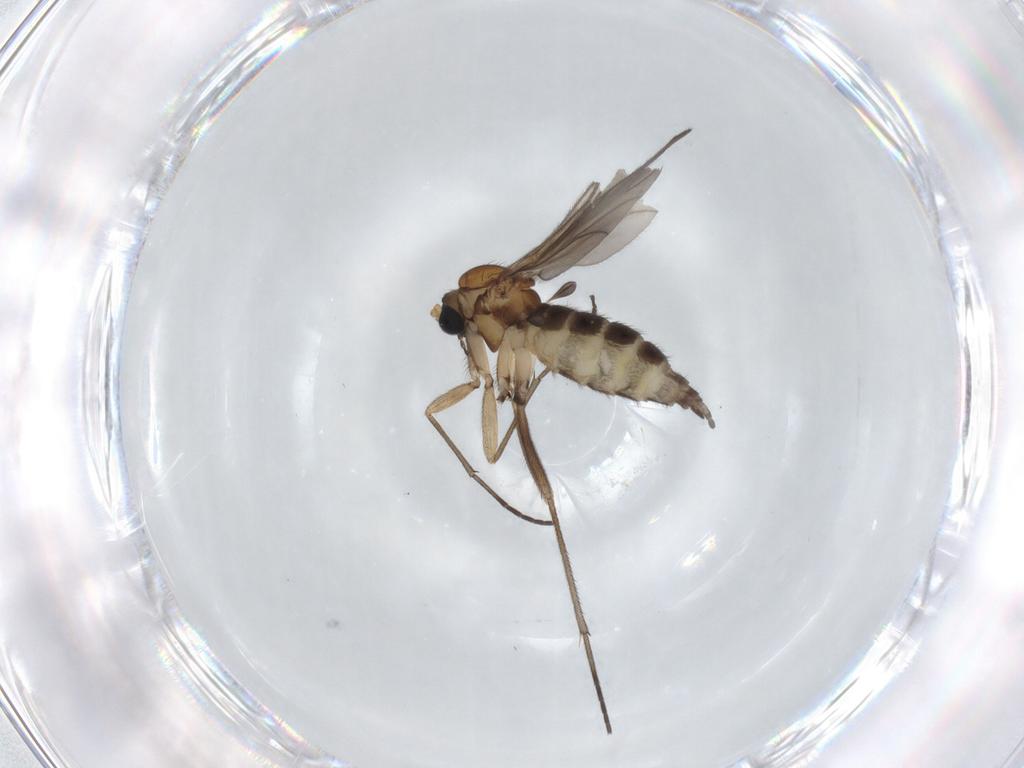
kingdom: Animalia
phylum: Arthropoda
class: Insecta
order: Diptera
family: Sciaridae
